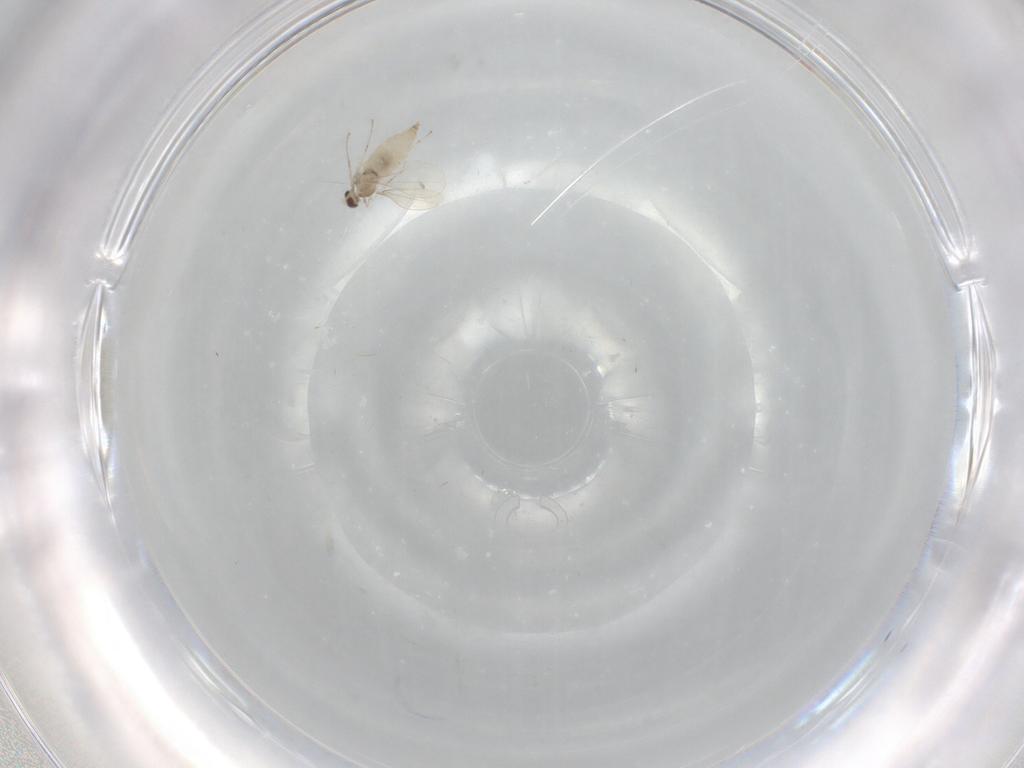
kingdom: Animalia
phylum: Arthropoda
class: Insecta
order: Diptera
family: Cecidomyiidae
